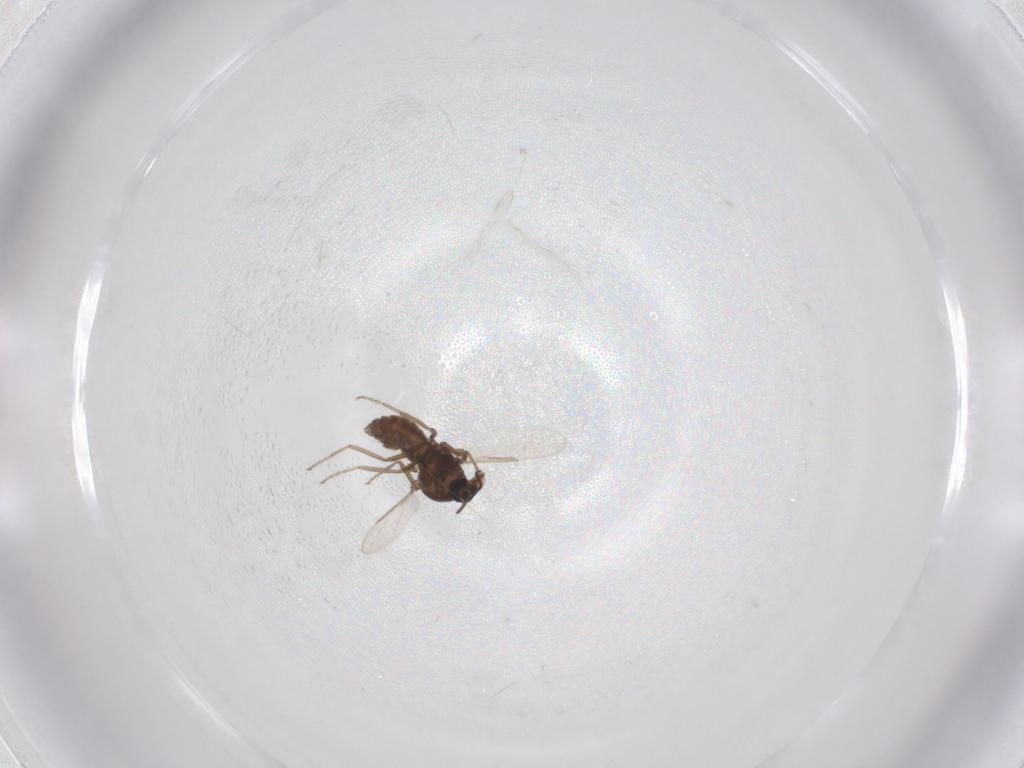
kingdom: Animalia
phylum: Arthropoda
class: Insecta
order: Diptera
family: Ceratopogonidae
